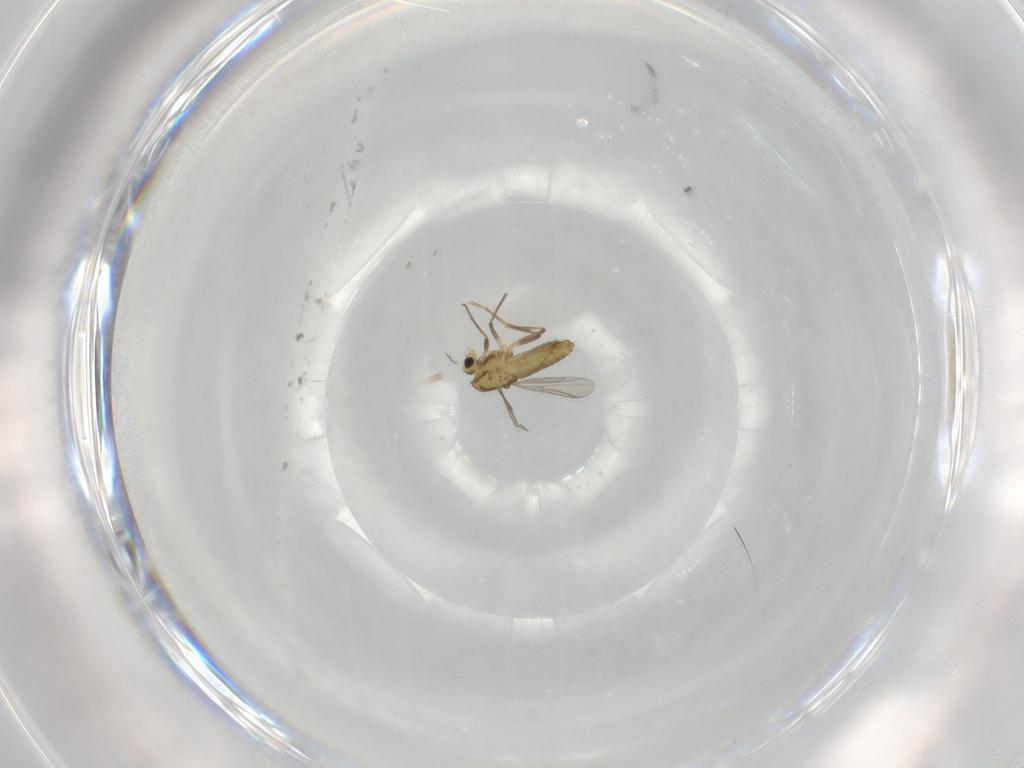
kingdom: Animalia
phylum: Arthropoda
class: Insecta
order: Diptera
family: Chironomidae
